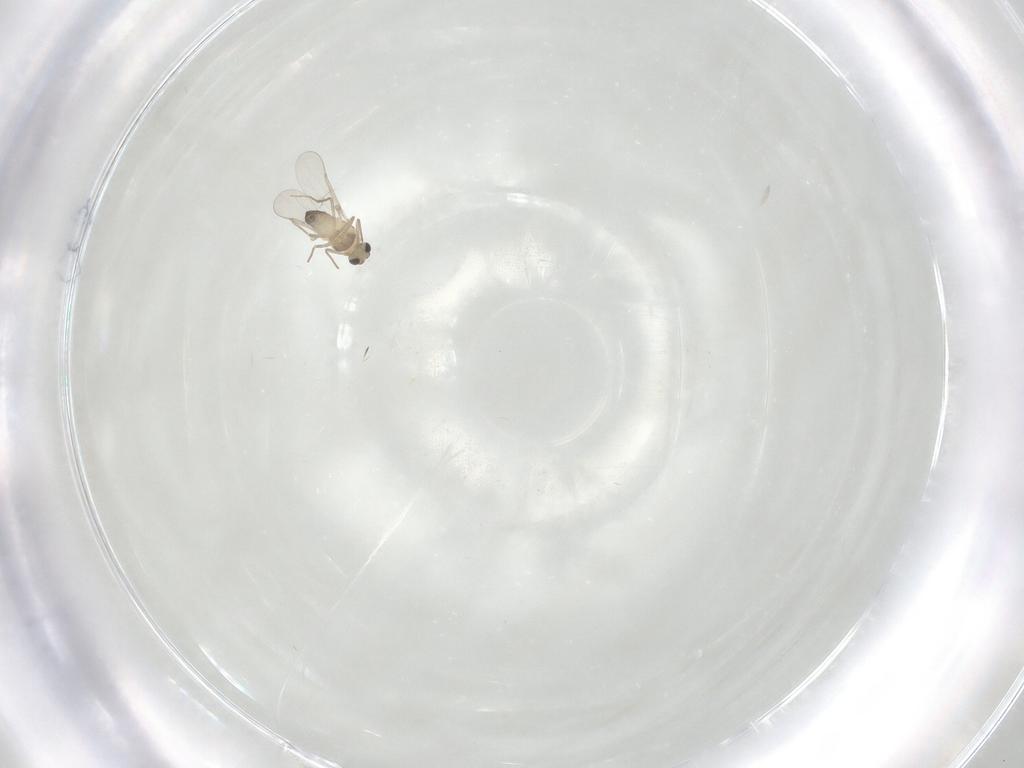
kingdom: Animalia
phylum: Arthropoda
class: Insecta
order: Diptera
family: Chironomidae
